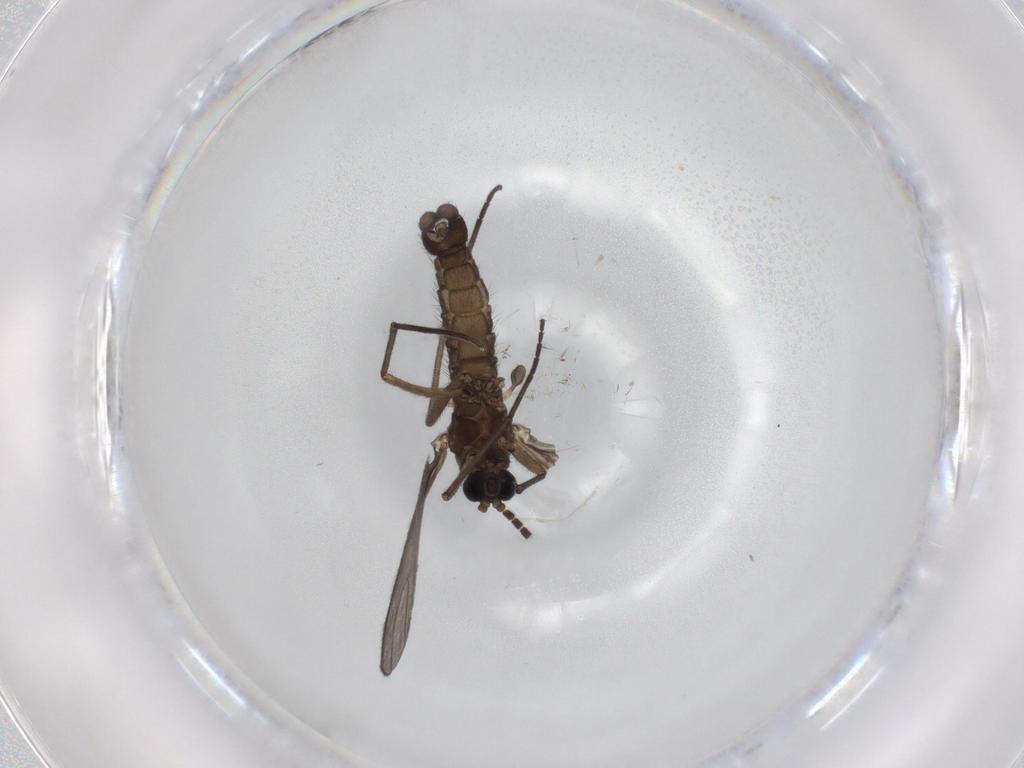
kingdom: Animalia
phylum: Arthropoda
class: Insecta
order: Diptera
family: Sciaridae
